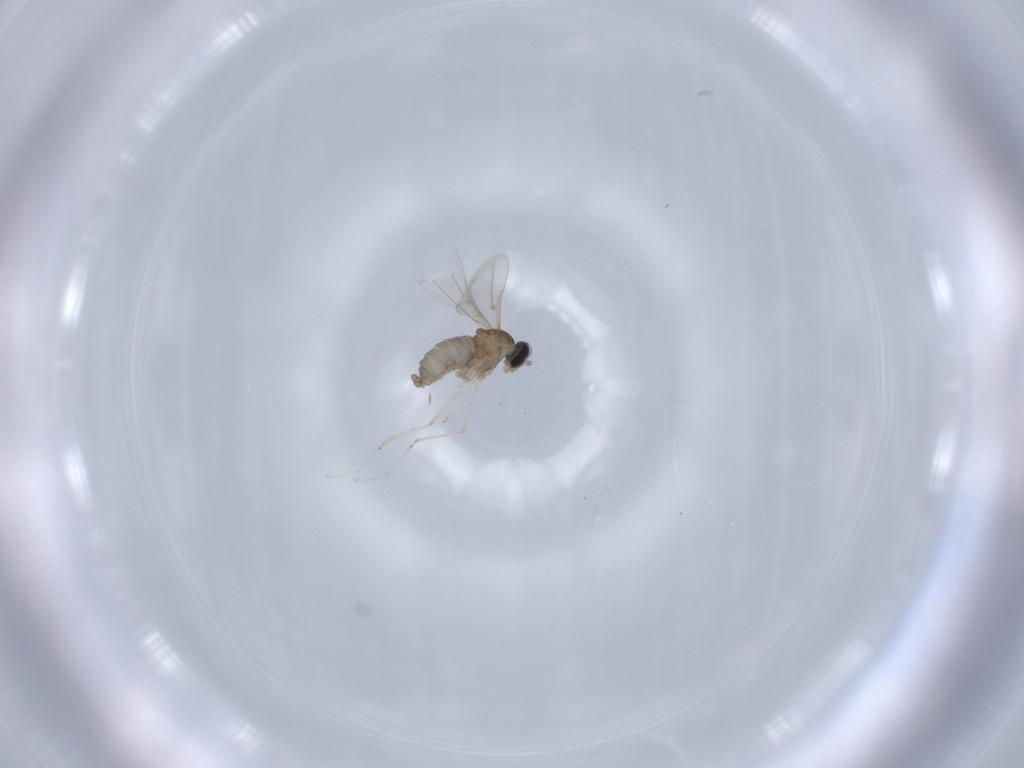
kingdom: Animalia
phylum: Arthropoda
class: Insecta
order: Diptera
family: Cecidomyiidae
